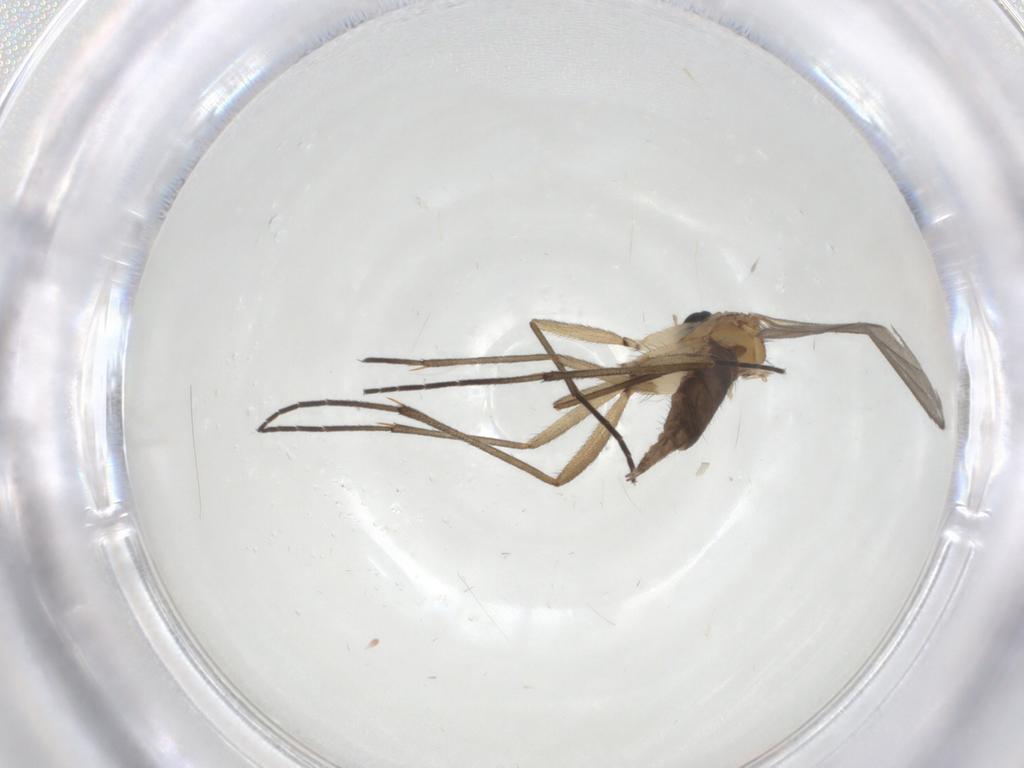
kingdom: Animalia
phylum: Arthropoda
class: Insecta
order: Diptera
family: Sciaridae
